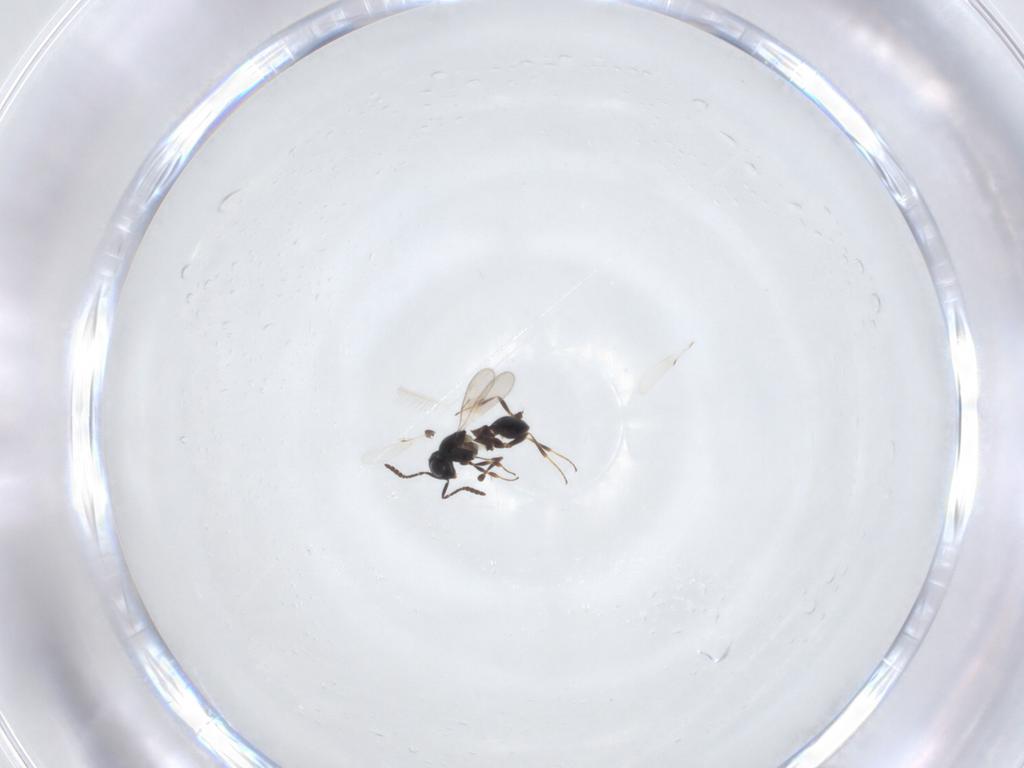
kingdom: Animalia
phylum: Arthropoda
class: Insecta
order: Hymenoptera
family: Scelionidae
